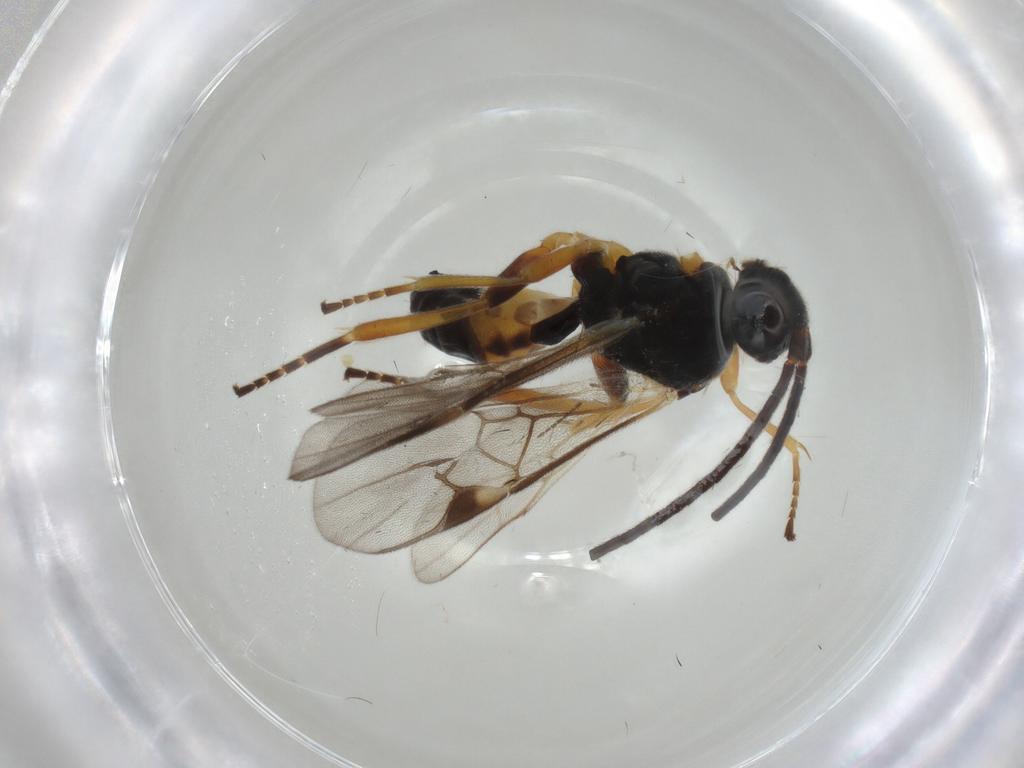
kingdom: Animalia
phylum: Arthropoda
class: Insecta
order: Hymenoptera
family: Braconidae
